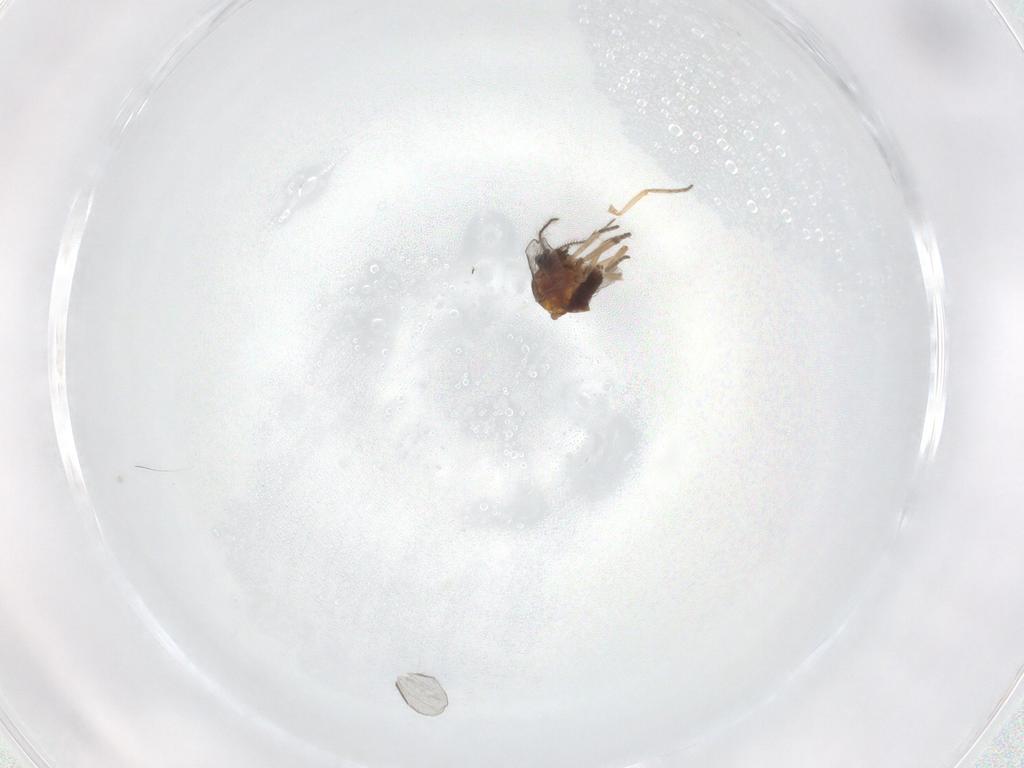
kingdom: Animalia
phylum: Arthropoda
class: Insecta
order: Diptera
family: Ceratopogonidae
